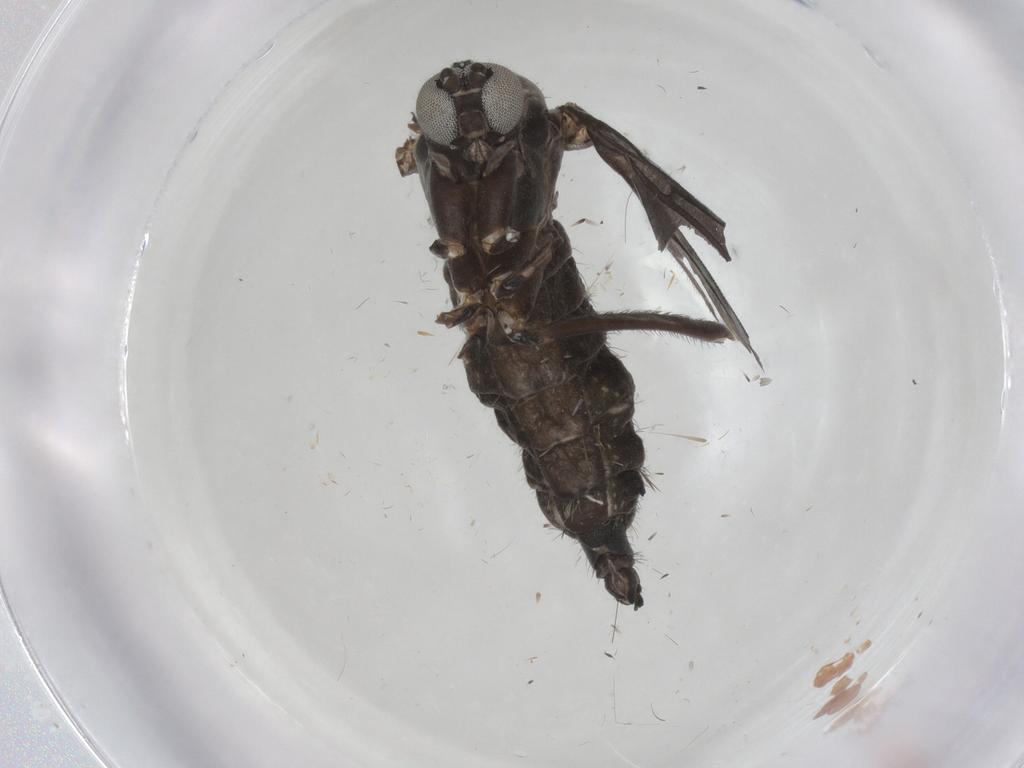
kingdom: Animalia
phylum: Arthropoda
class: Insecta
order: Diptera
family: Sciaridae
